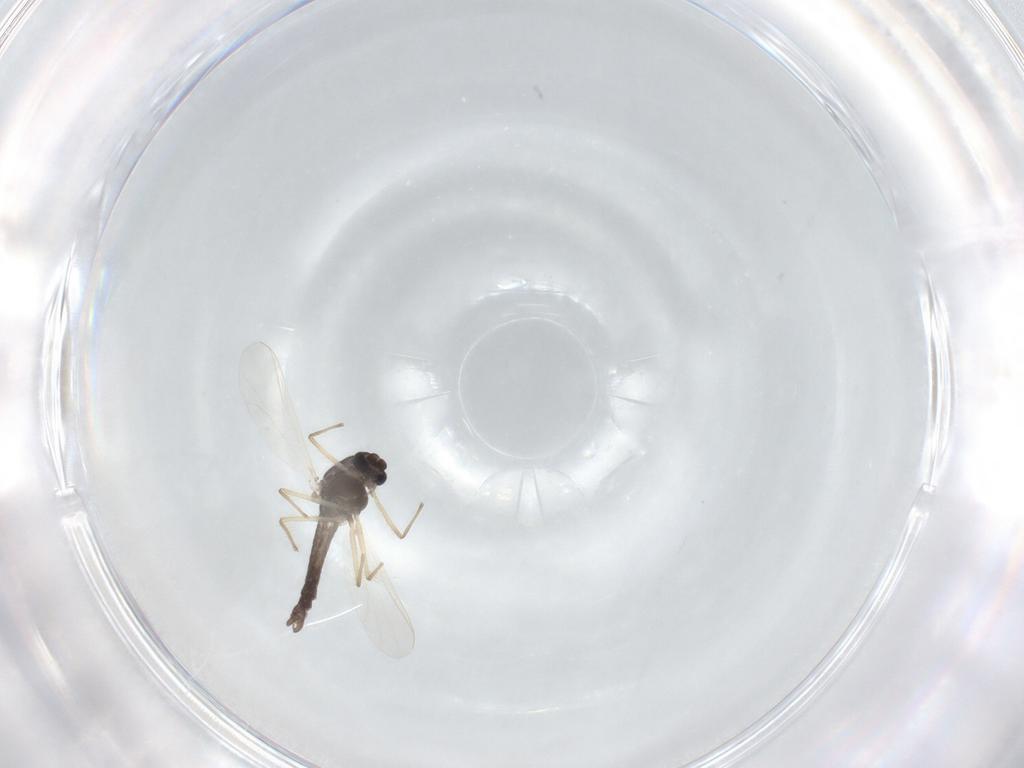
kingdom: Animalia
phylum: Arthropoda
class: Insecta
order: Diptera
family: Chironomidae
